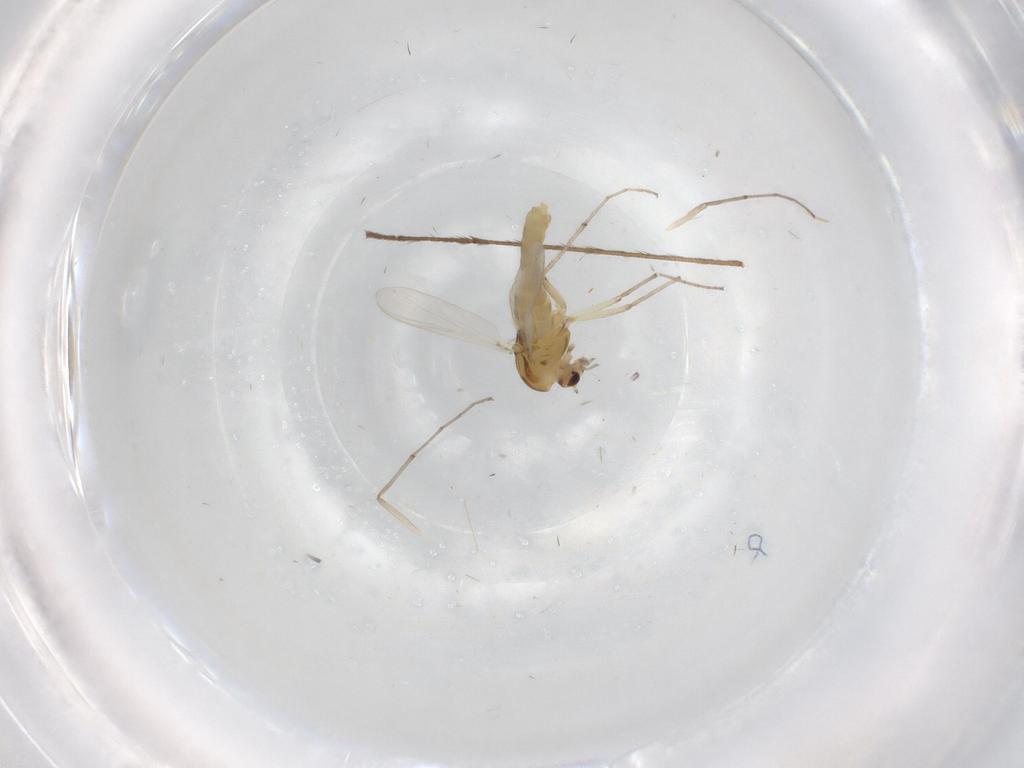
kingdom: Animalia
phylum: Arthropoda
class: Insecta
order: Diptera
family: Chironomidae
